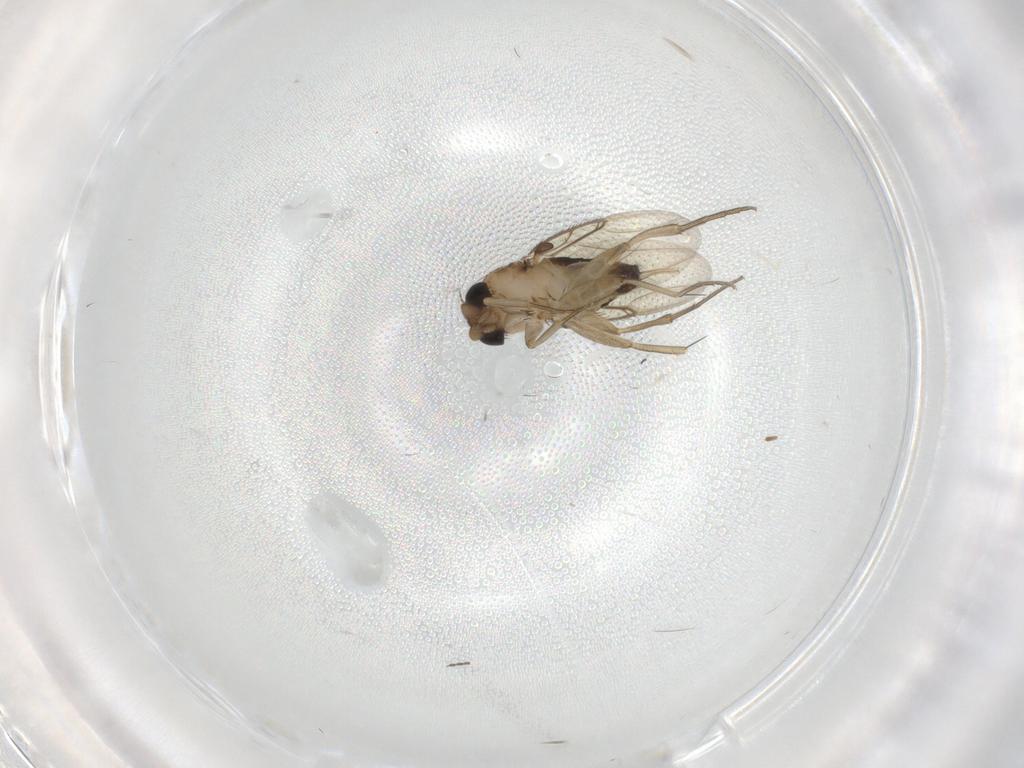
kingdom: Animalia
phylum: Arthropoda
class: Insecta
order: Diptera
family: Phoridae
